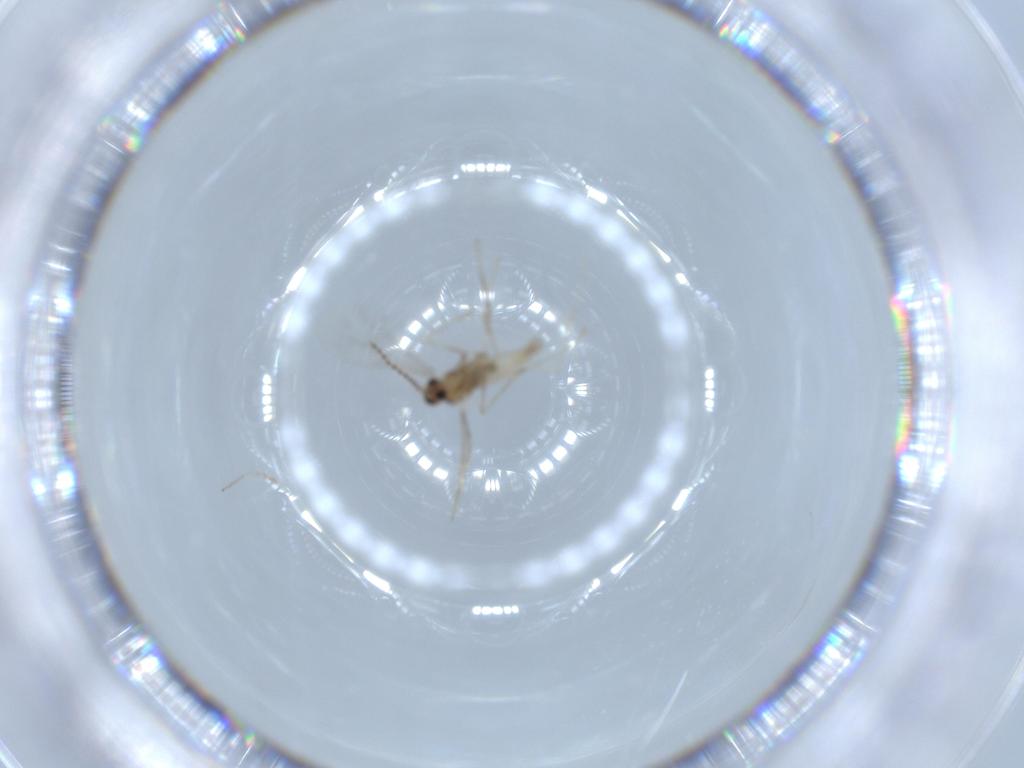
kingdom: Animalia
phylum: Arthropoda
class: Insecta
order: Diptera
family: Cecidomyiidae
